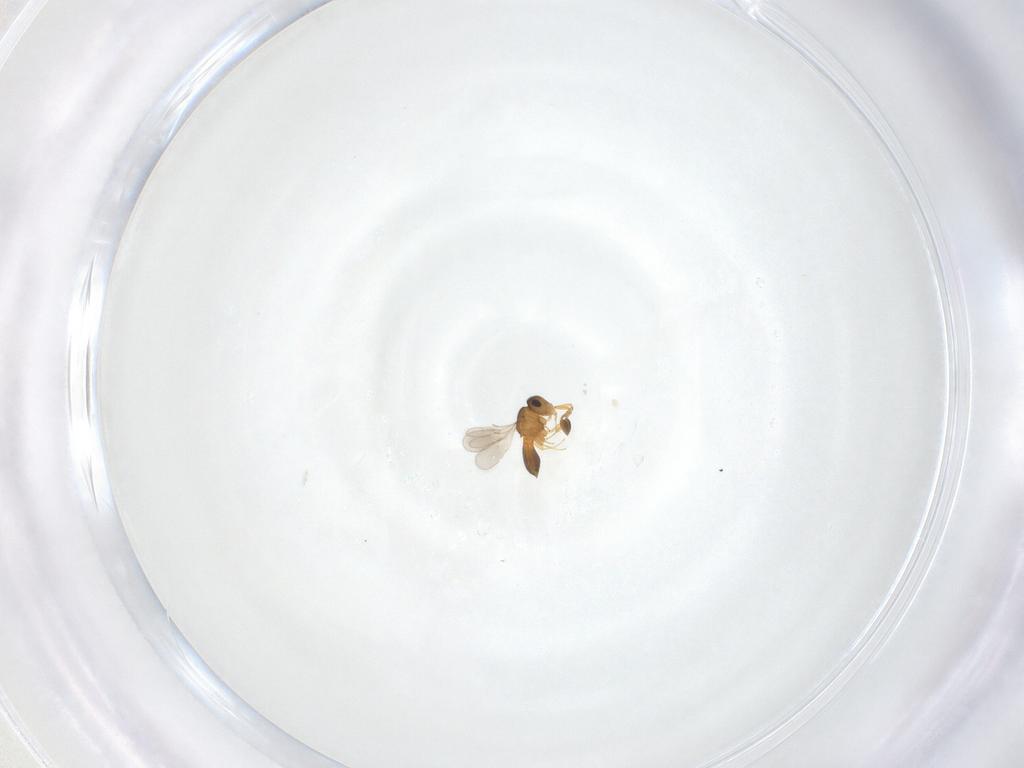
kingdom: Animalia
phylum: Arthropoda
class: Insecta
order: Hymenoptera
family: Scelionidae
